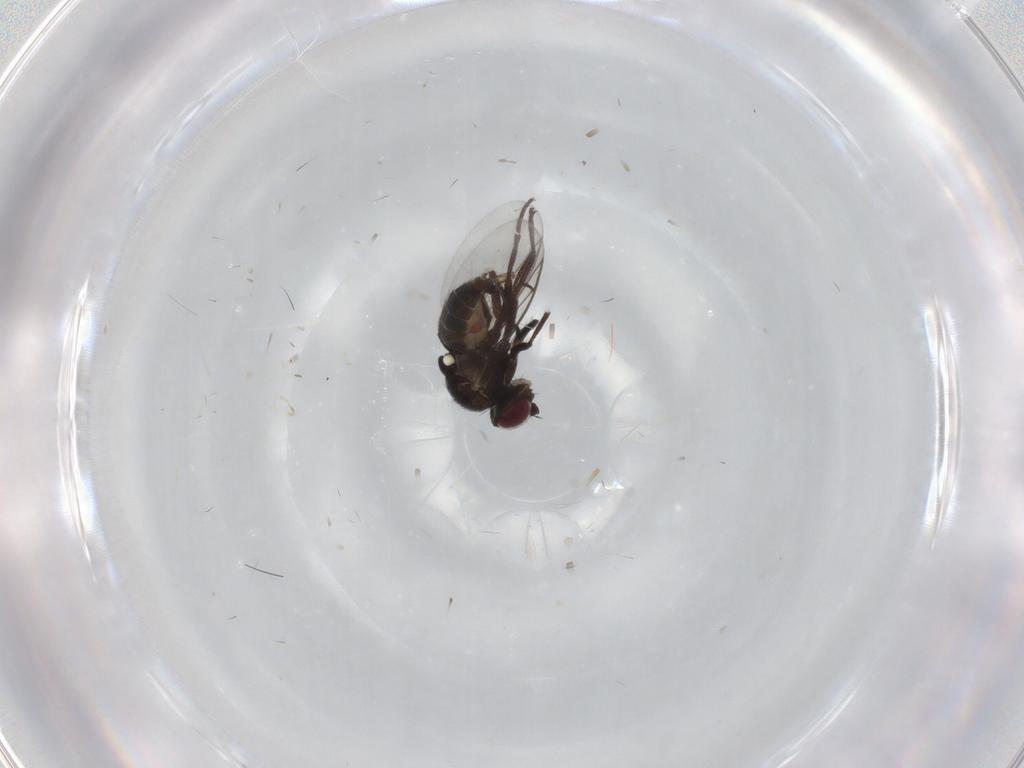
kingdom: Animalia
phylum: Arthropoda
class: Insecta
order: Diptera
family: Agromyzidae
